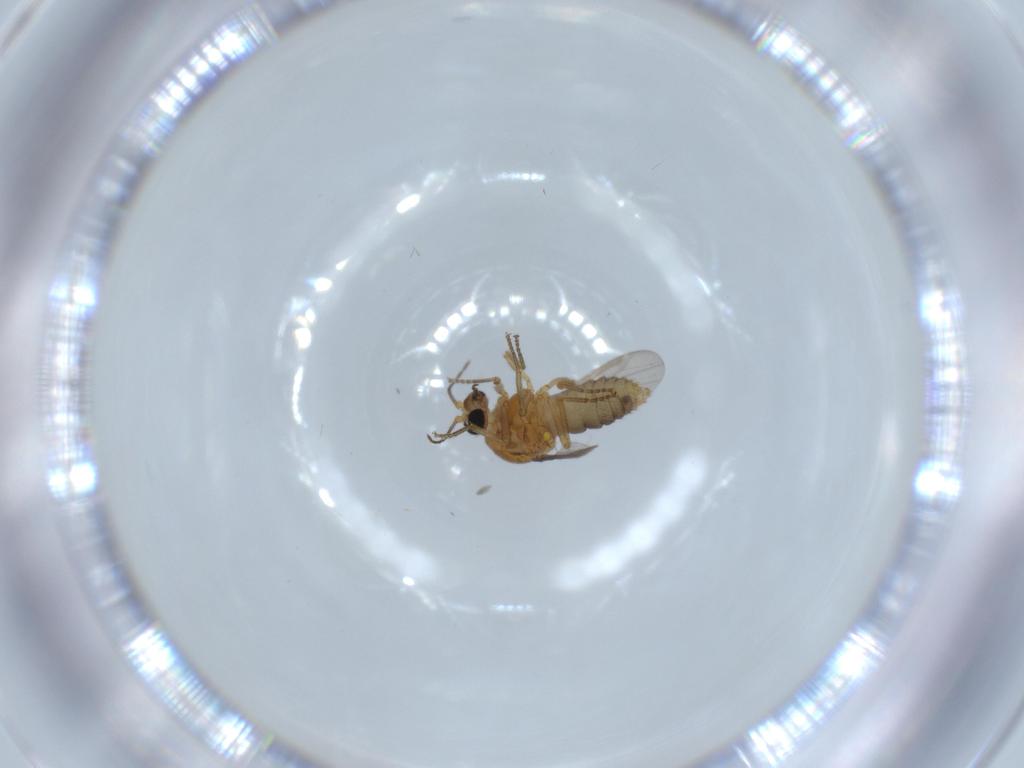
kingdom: Animalia
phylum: Arthropoda
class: Insecta
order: Diptera
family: Ceratopogonidae
